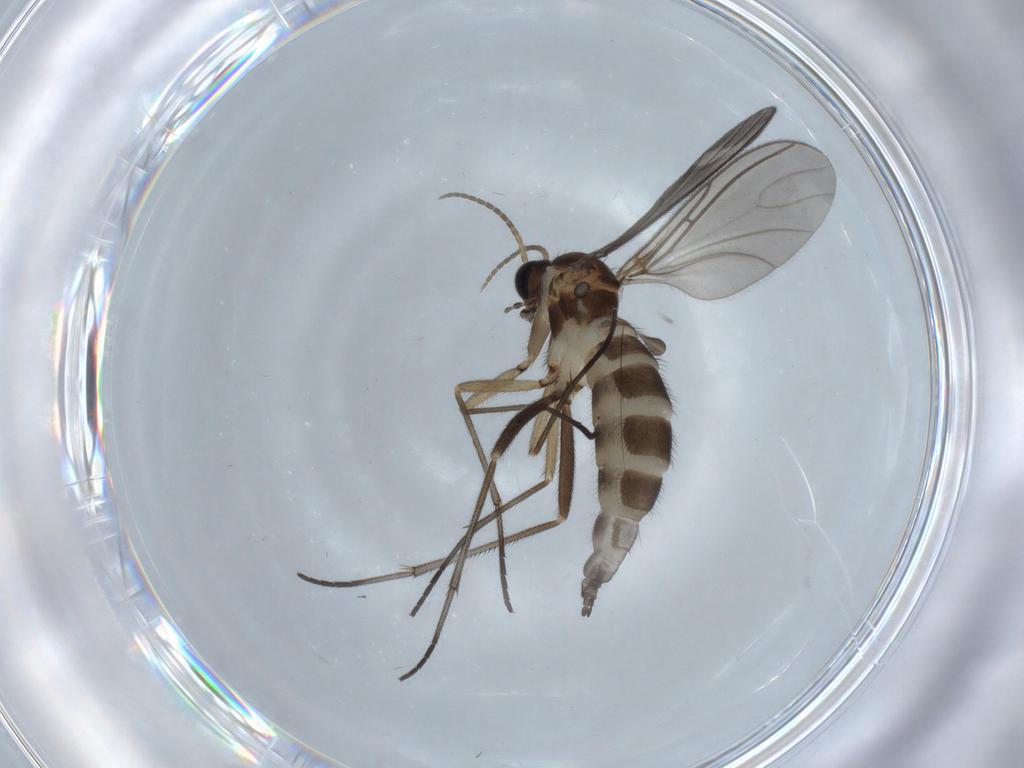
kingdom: Animalia
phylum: Arthropoda
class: Insecta
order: Diptera
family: Sciaridae
